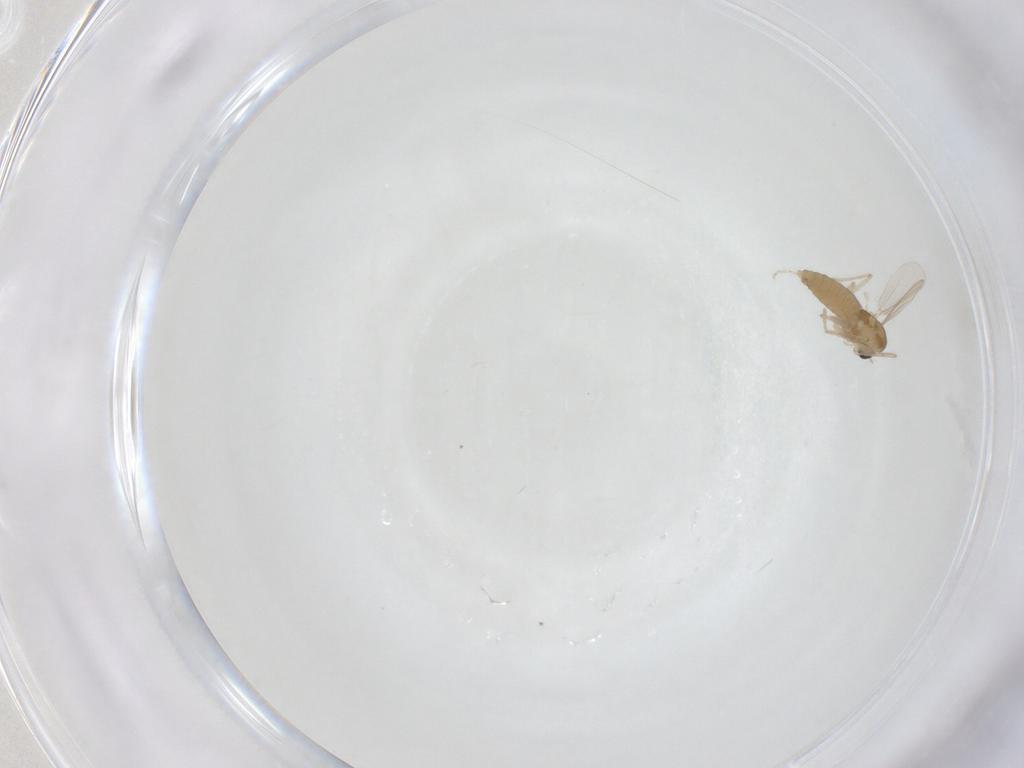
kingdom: Animalia
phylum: Arthropoda
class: Insecta
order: Diptera
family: Chironomidae
